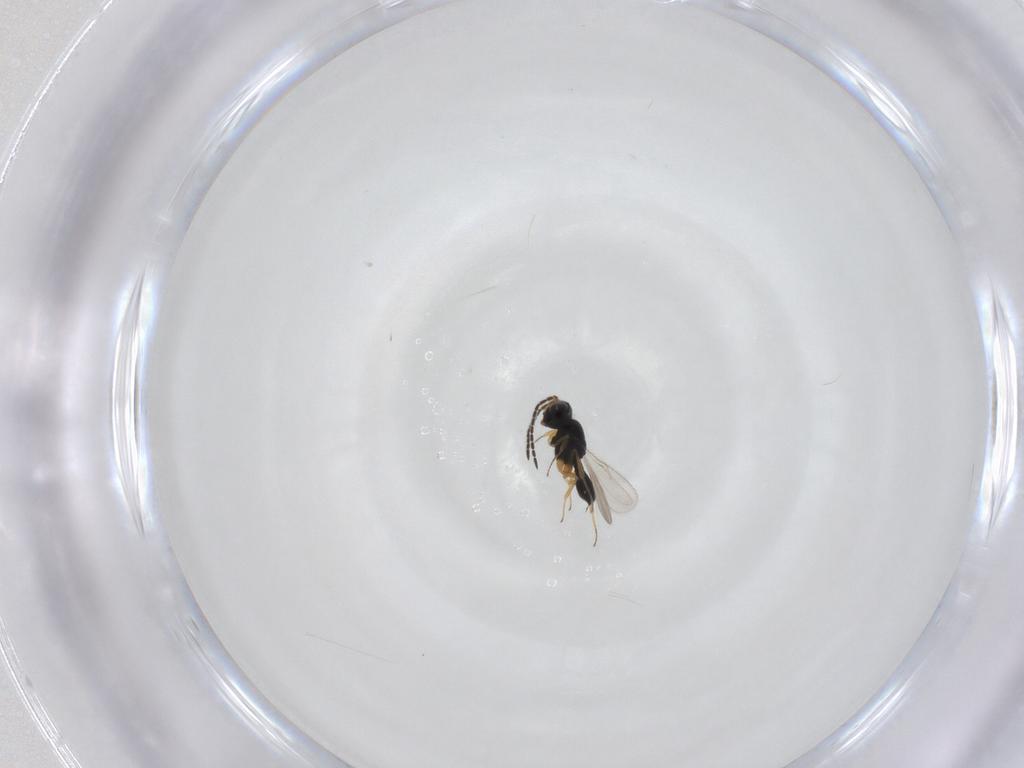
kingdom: Animalia
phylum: Arthropoda
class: Insecta
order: Hymenoptera
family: Scelionidae
